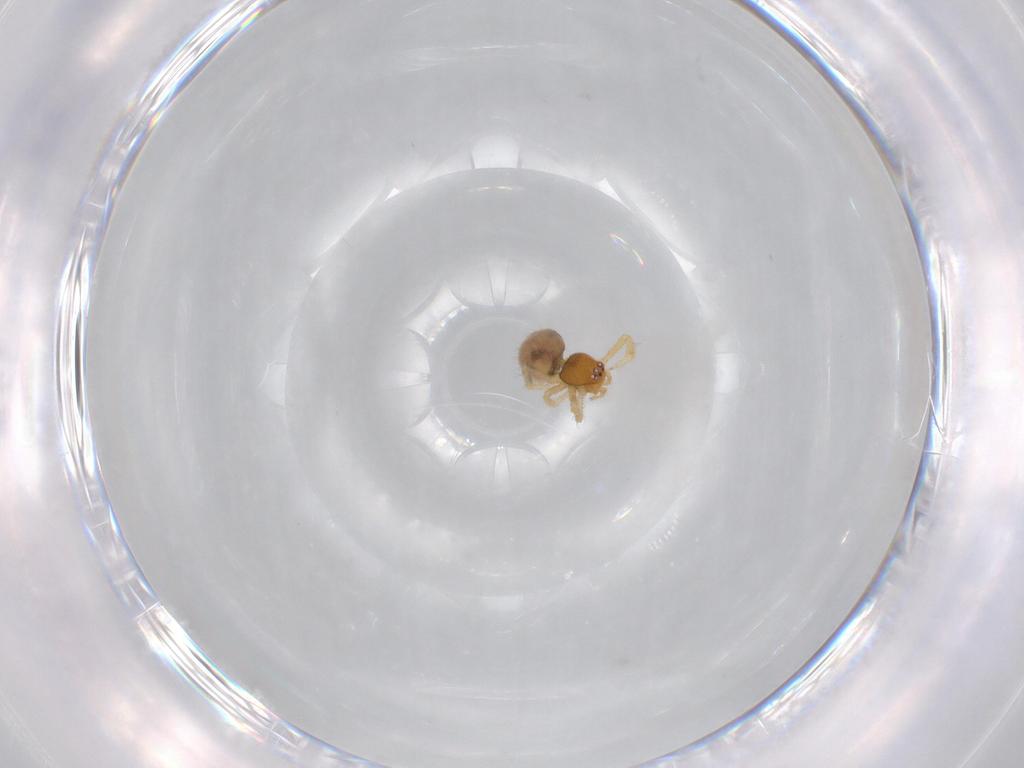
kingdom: Animalia
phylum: Arthropoda
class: Arachnida
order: Araneae
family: Theridiidae
